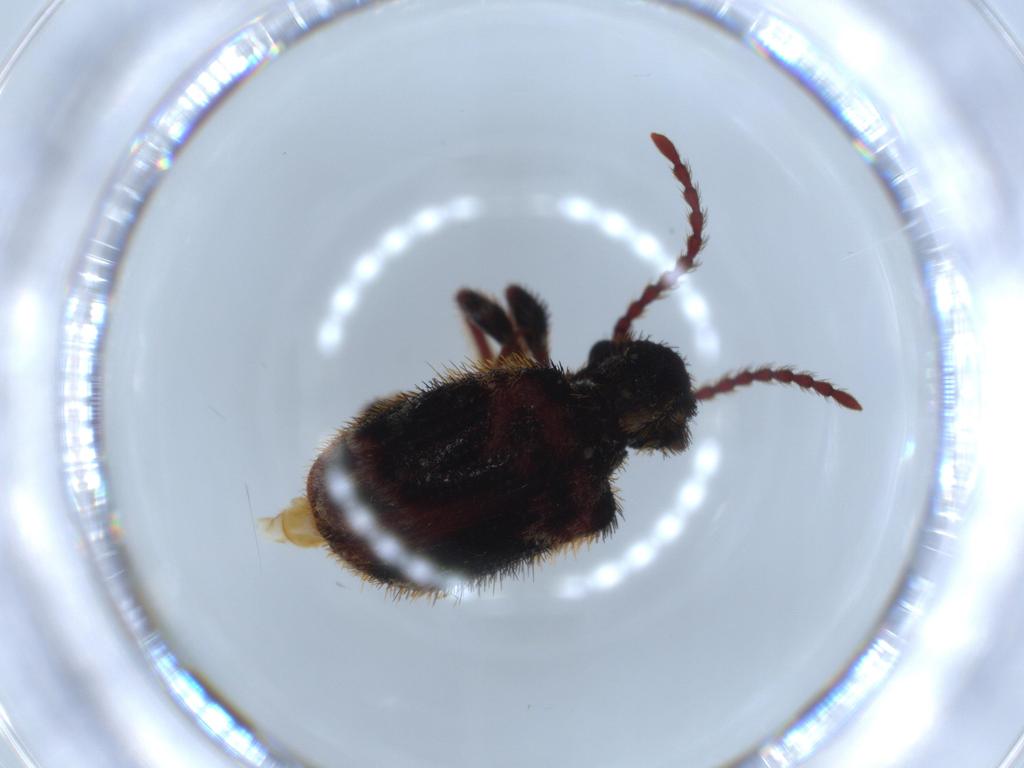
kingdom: Animalia
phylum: Arthropoda
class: Insecta
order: Coleoptera
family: Ptinidae
